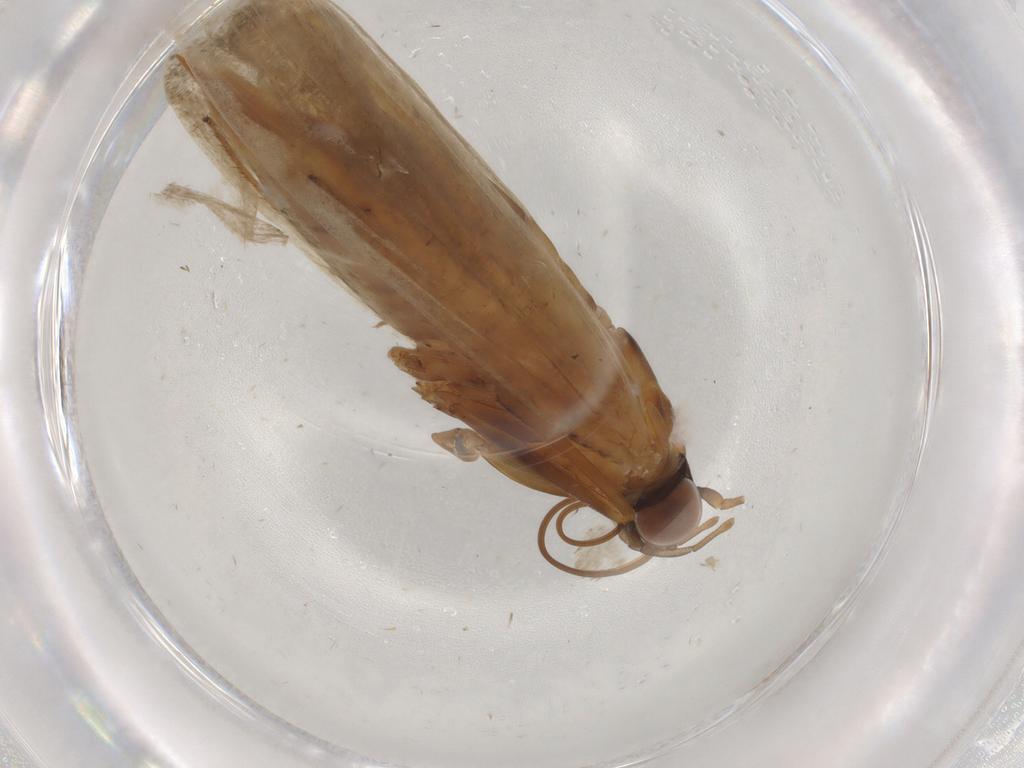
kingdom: Animalia
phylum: Arthropoda
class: Insecta
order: Lepidoptera
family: Pyralidae
